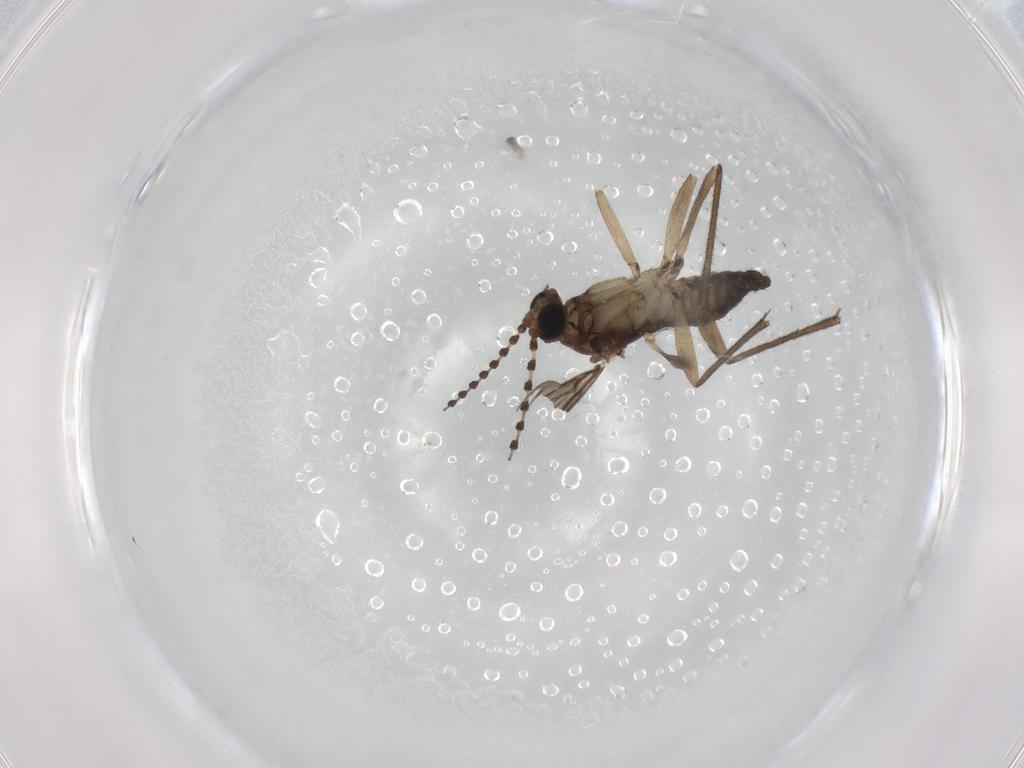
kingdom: Animalia
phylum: Arthropoda
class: Insecta
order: Diptera
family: Sciaridae
